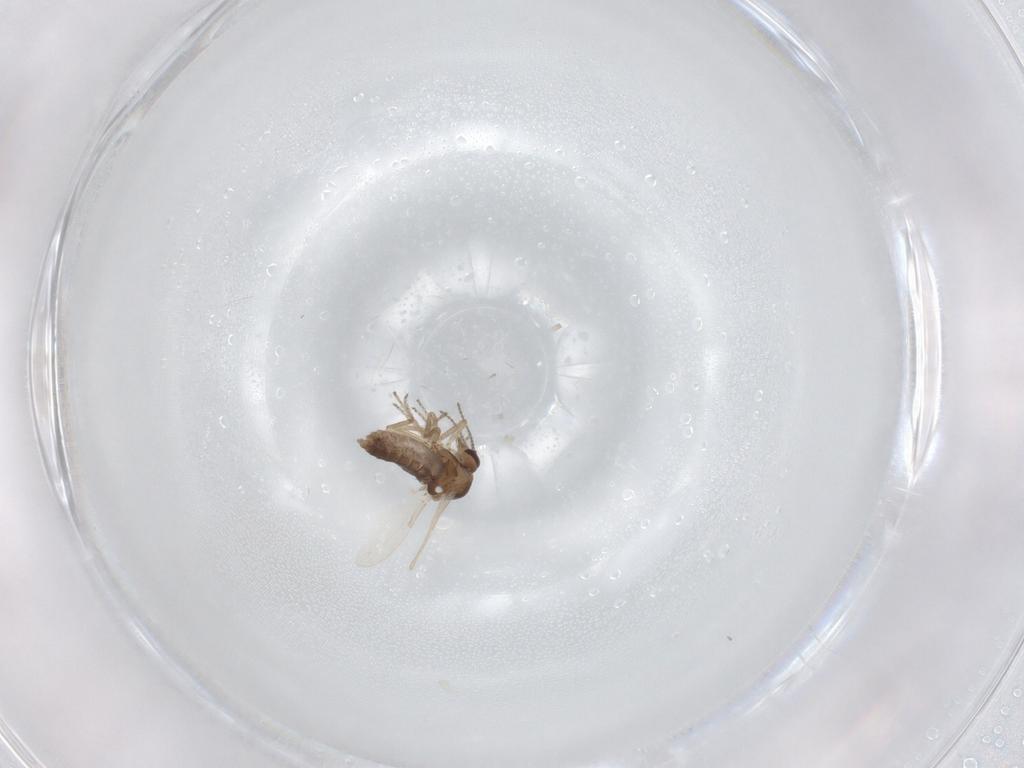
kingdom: Animalia
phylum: Arthropoda
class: Insecta
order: Diptera
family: Ceratopogonidae
